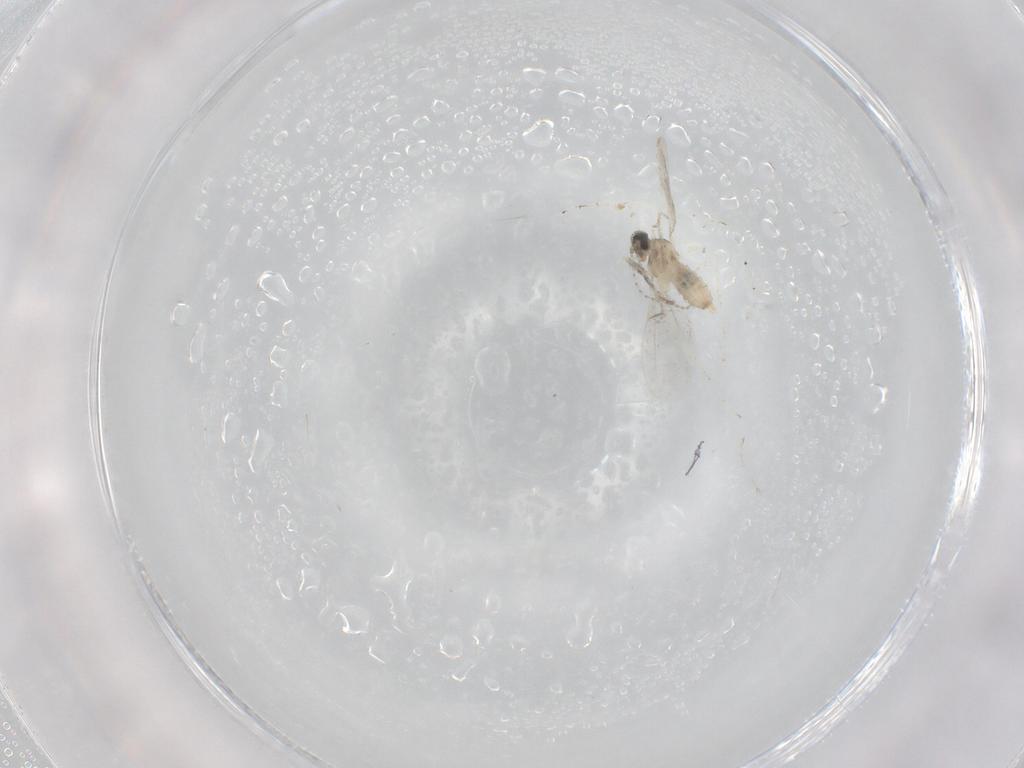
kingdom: Animalia
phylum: Arthropoda
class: Insecta
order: Diptera
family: Cecidomyiidae
